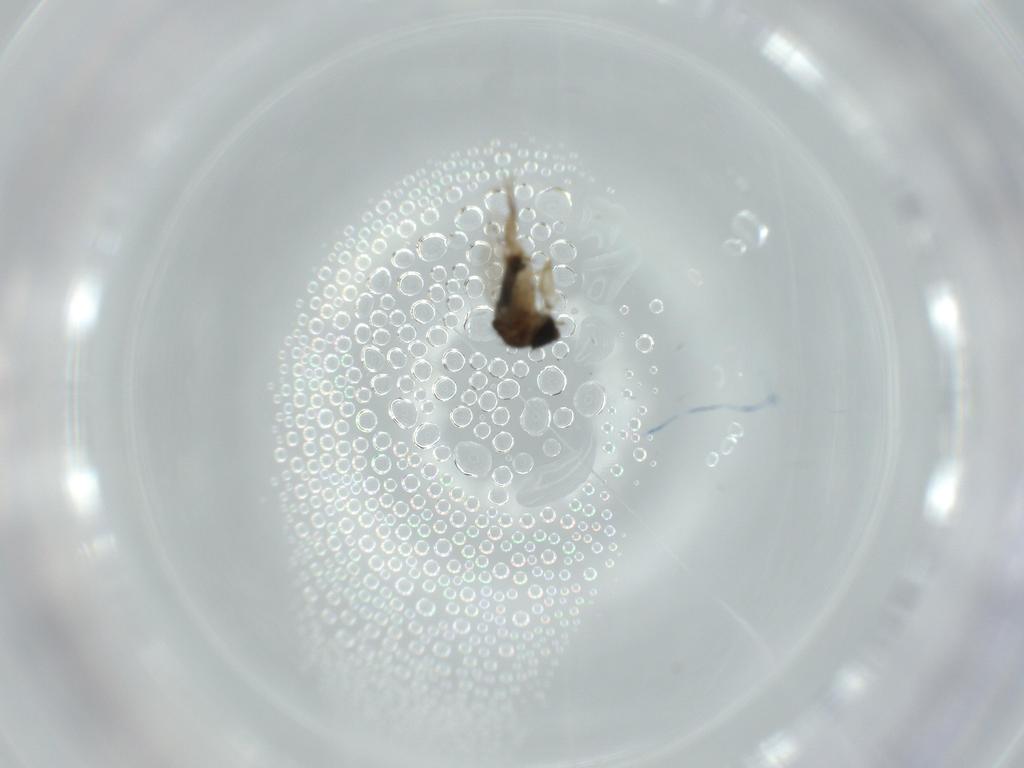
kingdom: Animalia
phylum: Arthropoda
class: Insecta
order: Diptera
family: Phoridae
